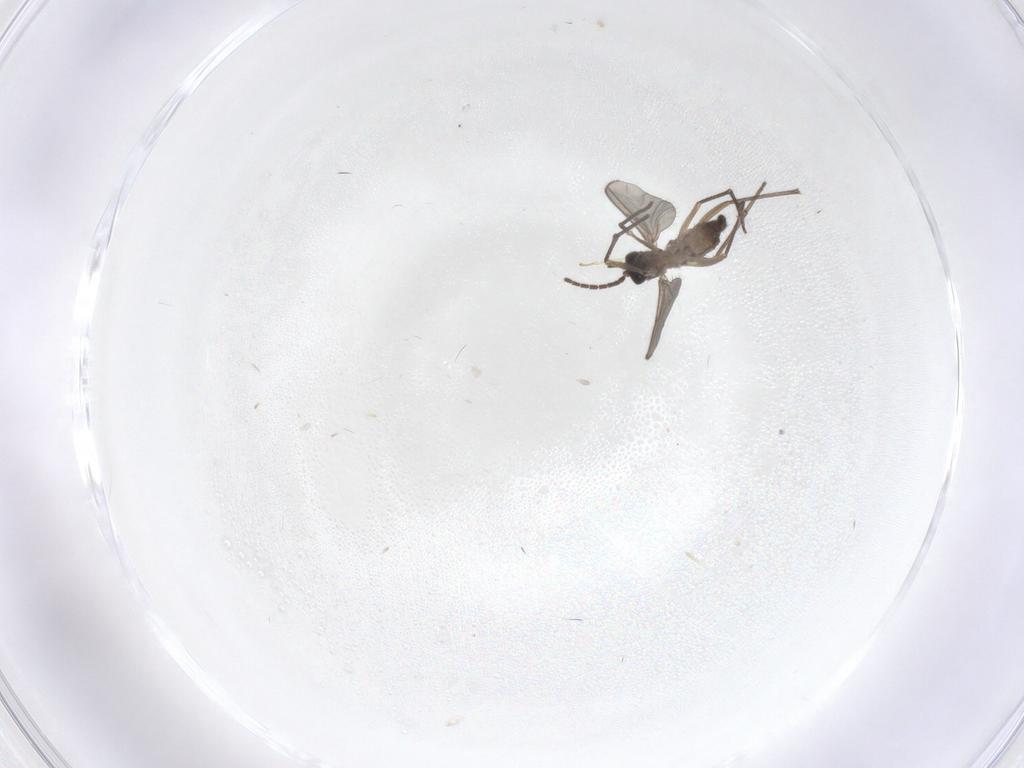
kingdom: Animalia
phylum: Arthropoda
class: Insecta
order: Diptera
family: Sciaridae
